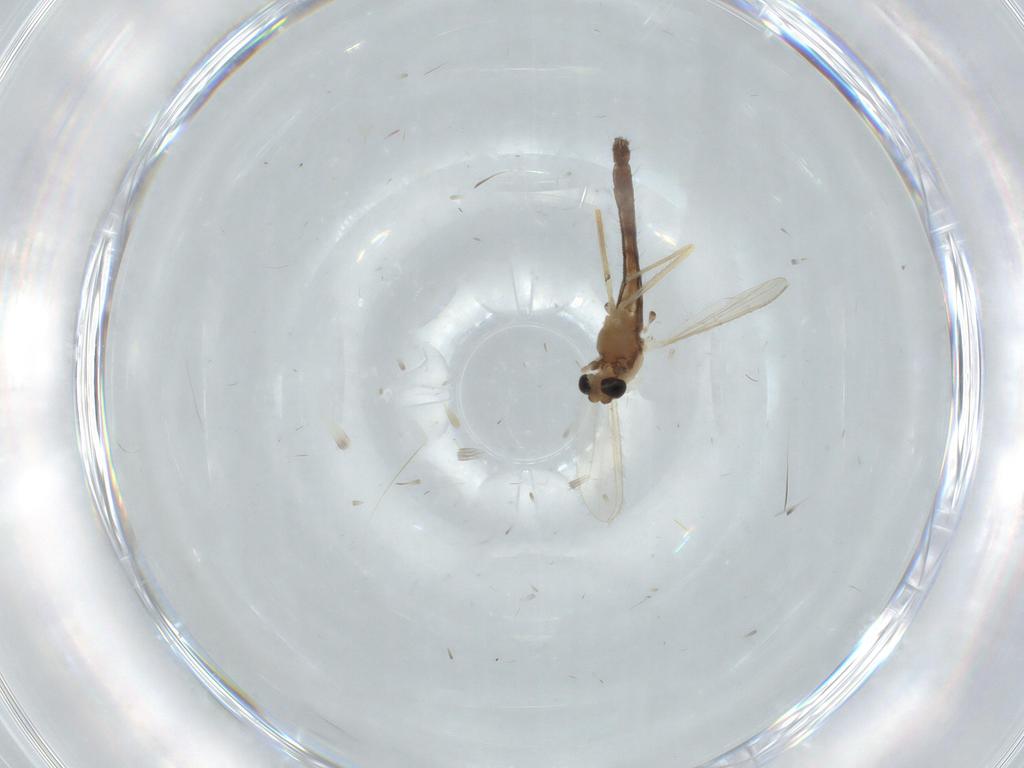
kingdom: Animalia
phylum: Arthropoda
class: Insecta
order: Diptera
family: Chironomidae
